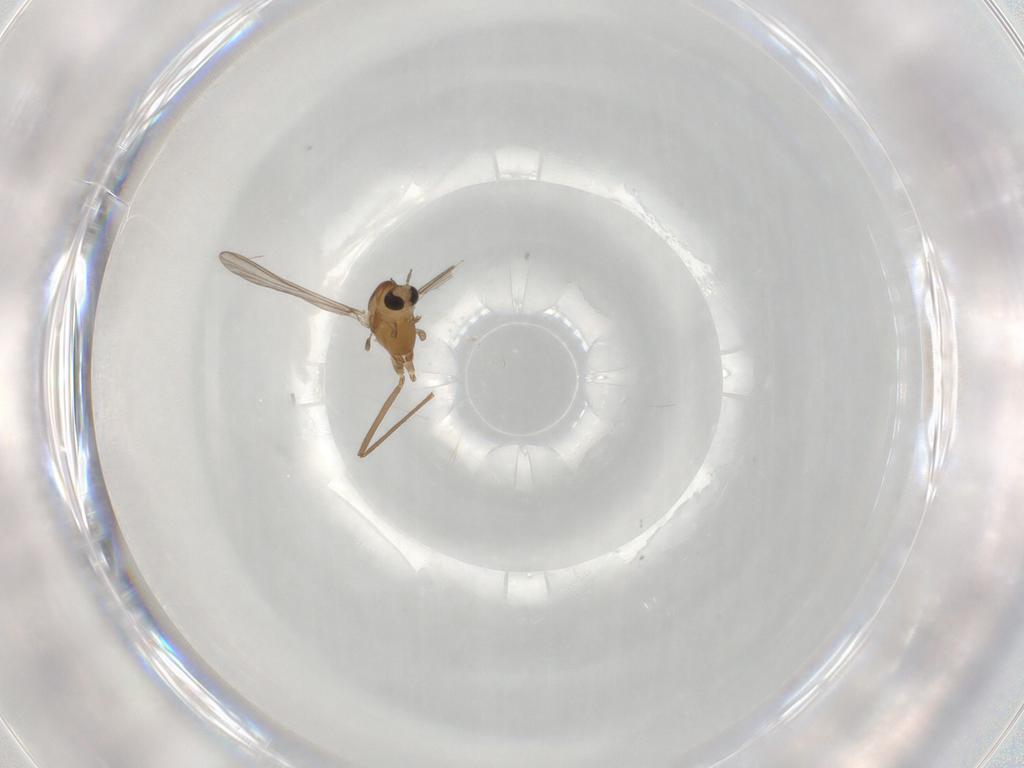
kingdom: Animalia
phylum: Arthropoda
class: Insecta
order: Diptera
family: Chironomidae
